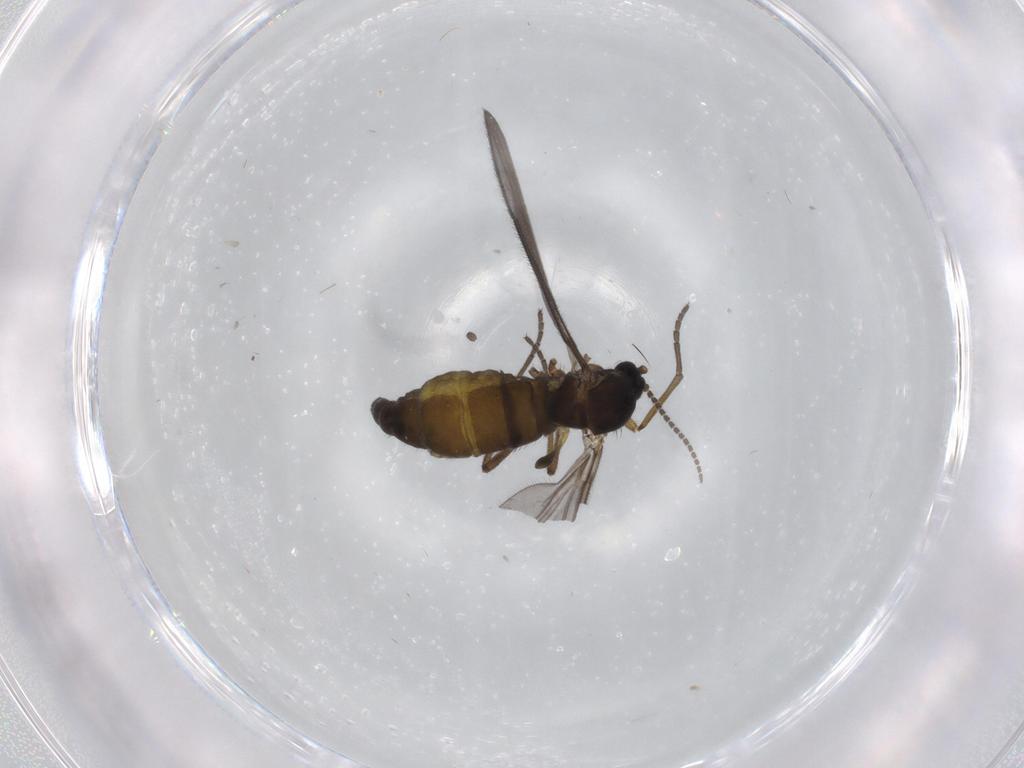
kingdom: Animalia
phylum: Arthropoda
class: Insecta
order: Diptera
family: Sciaridae
